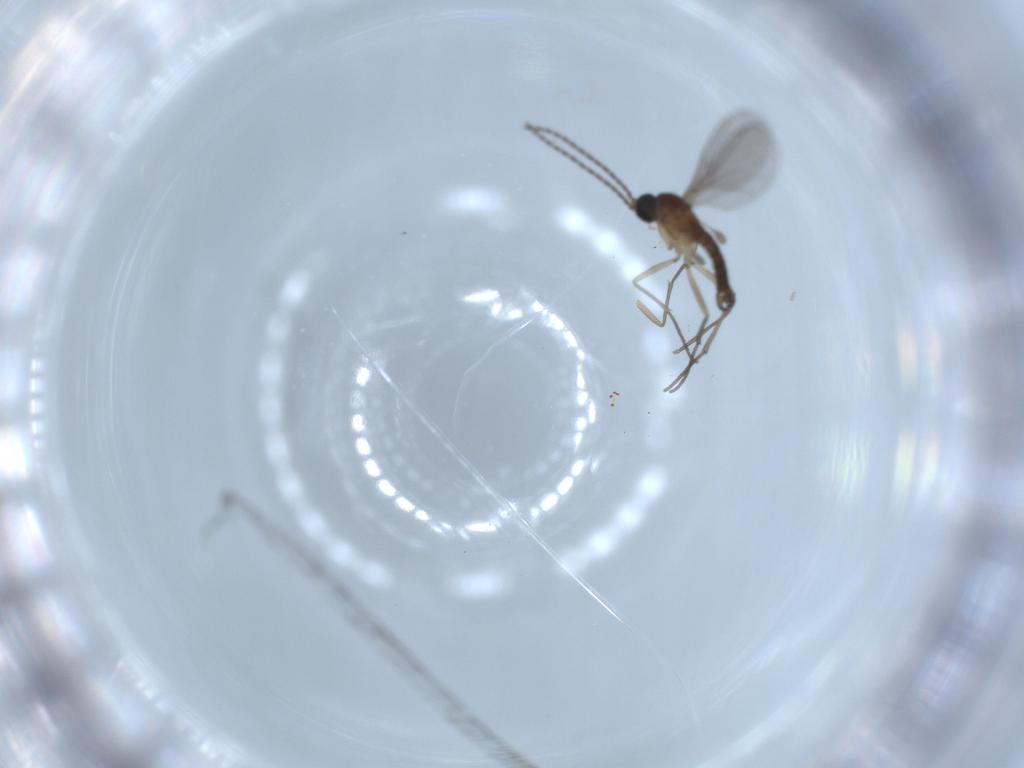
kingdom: Animalia
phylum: Arthropoda
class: Insecta
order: Diptera
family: Sciaridae
